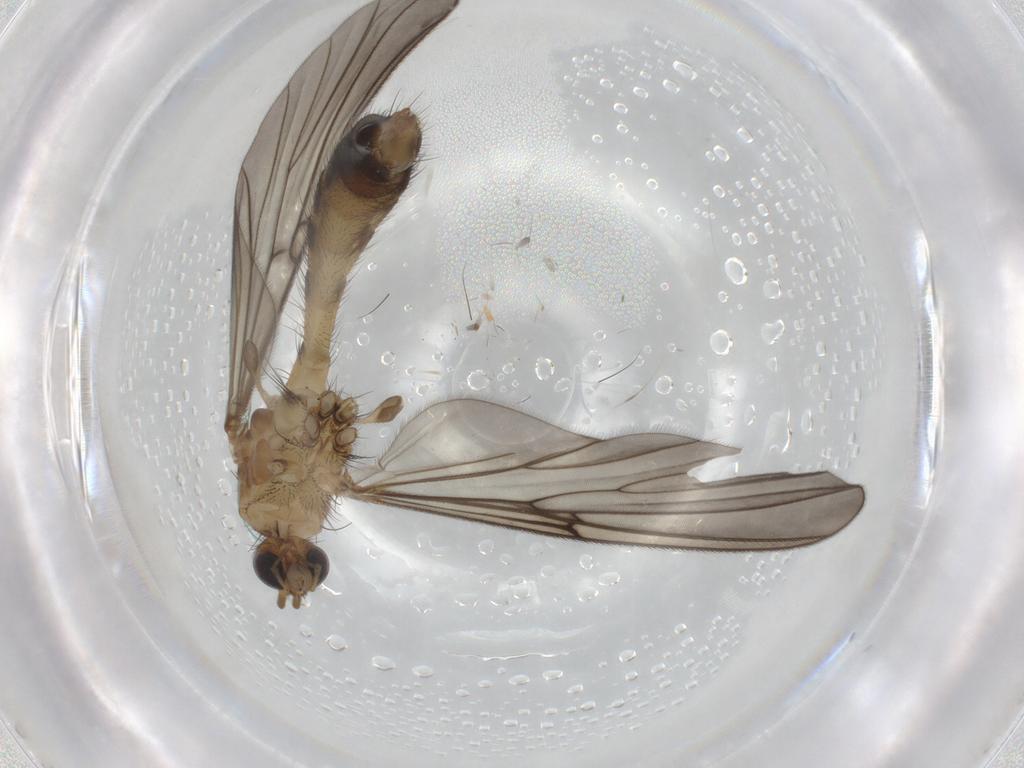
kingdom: Animalia
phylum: Arthropoda
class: Insecta
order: Diptera
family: Cecidomyiidae
